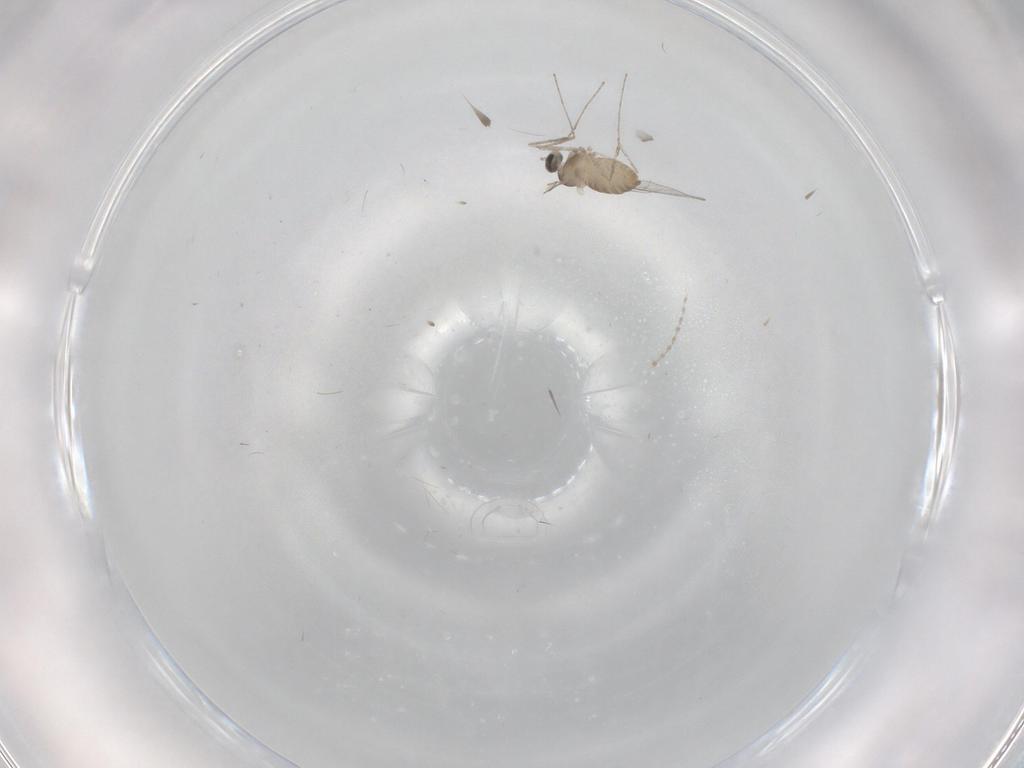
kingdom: Animalia
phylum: Arthropoda
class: Insecta
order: Diptera
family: Cecidomyiidae
